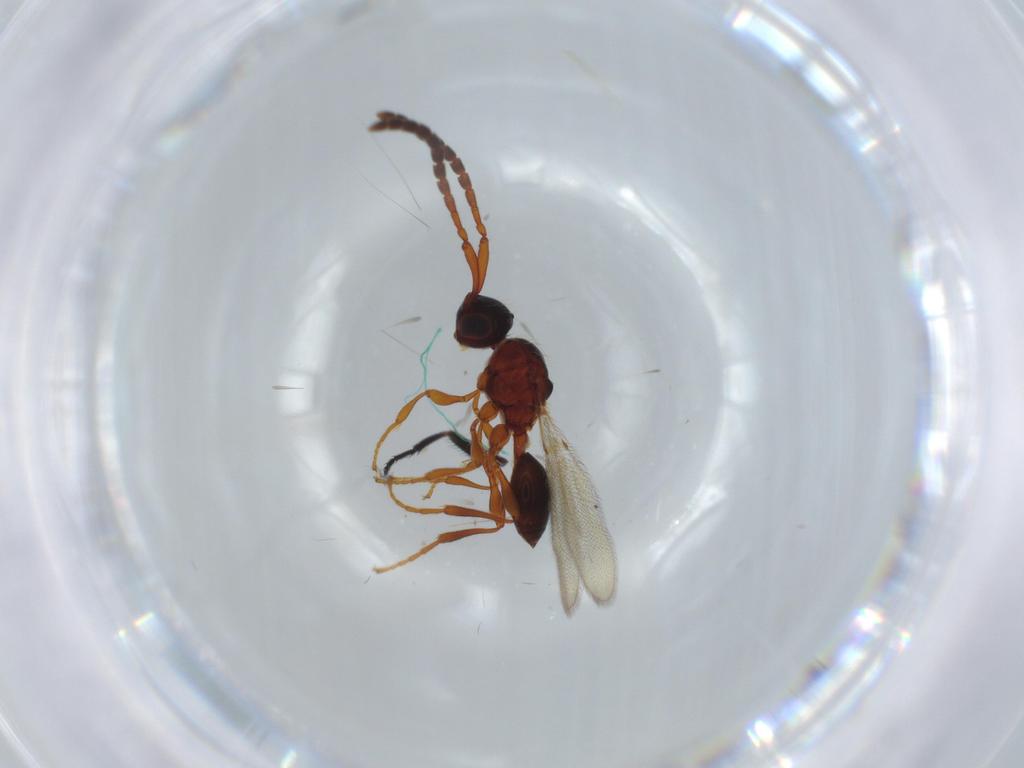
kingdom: Animalia
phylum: Arthropoda
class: Insecta
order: Hymenoptera
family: Diapriidae
